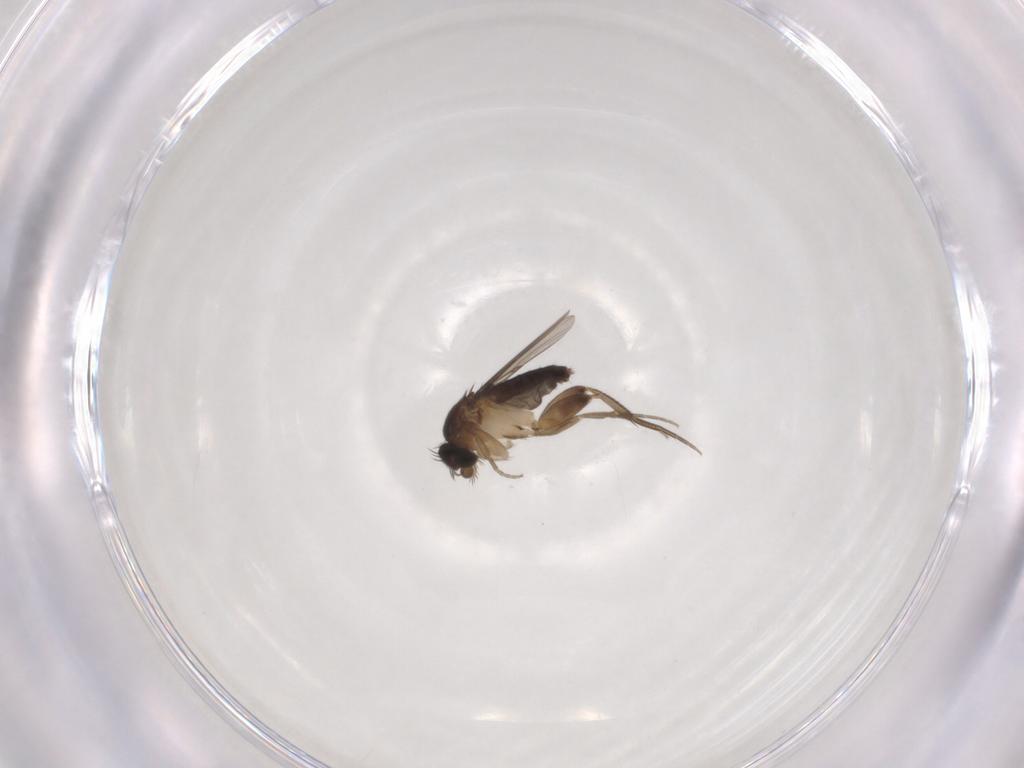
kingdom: Animalia
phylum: Arthropoda
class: Insecta
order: Diptera
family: Phoridae
